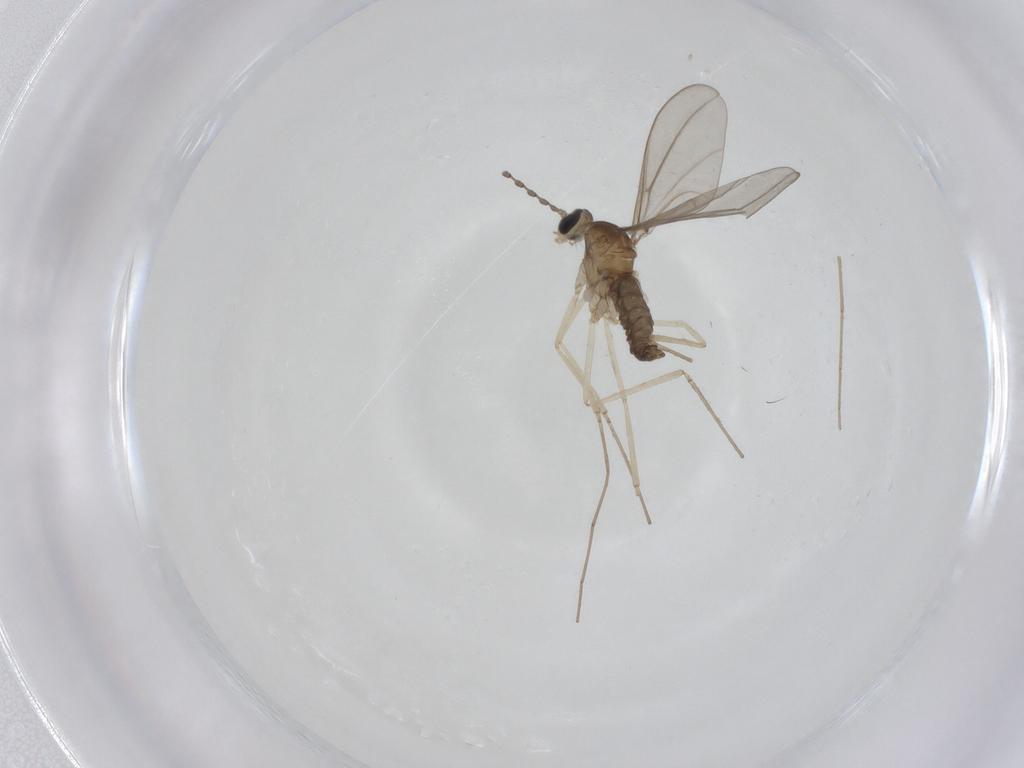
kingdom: Animalia
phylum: Arthropoda
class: Insecta
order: Diptera
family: Cecidomyiidae
